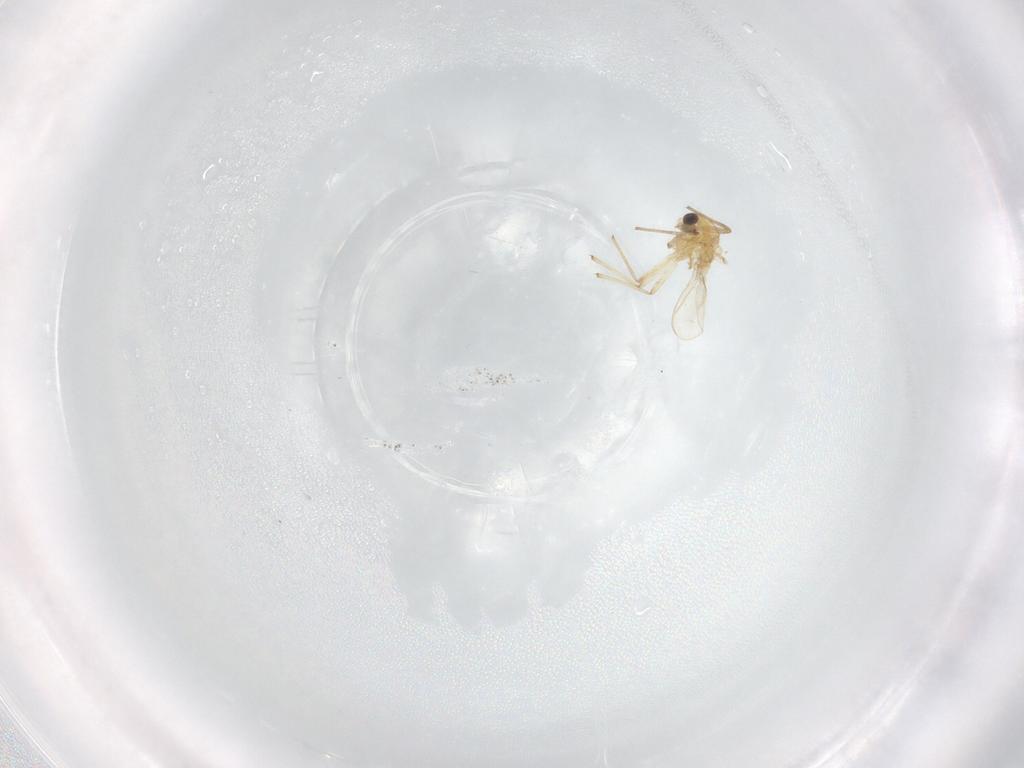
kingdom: Animalia
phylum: Arthropoda
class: Insecta
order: Diptera
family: Chironomidae
